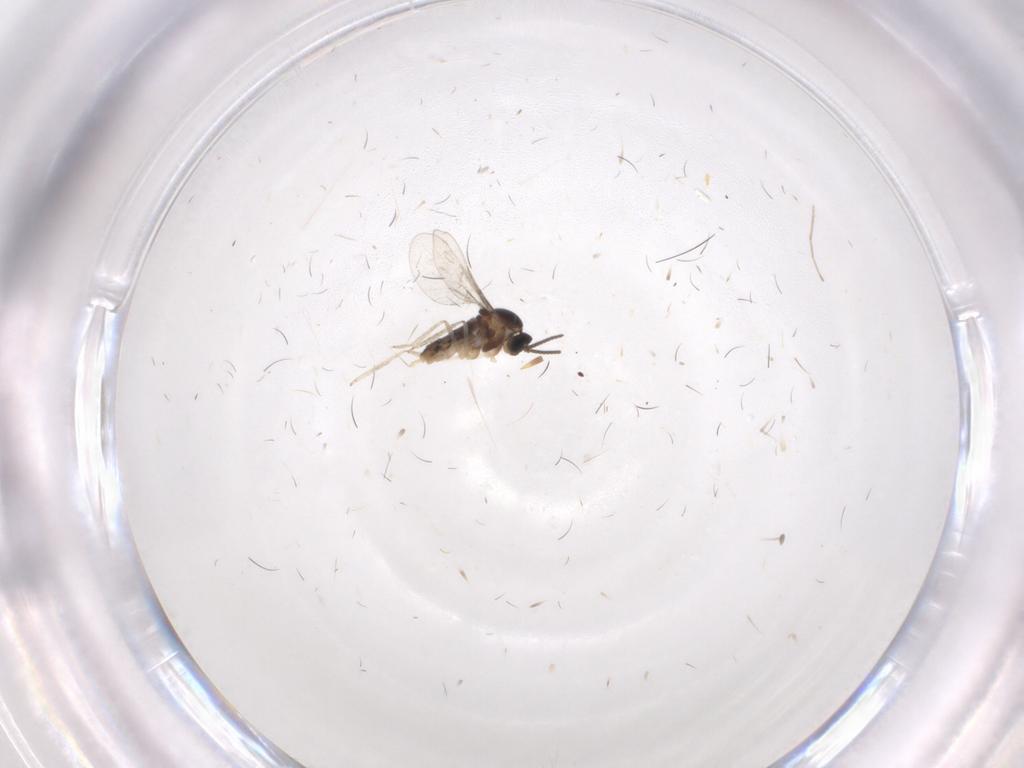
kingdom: Animalia
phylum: Arthropoda
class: Insecta
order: Diptera
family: Cecidomyiidae
